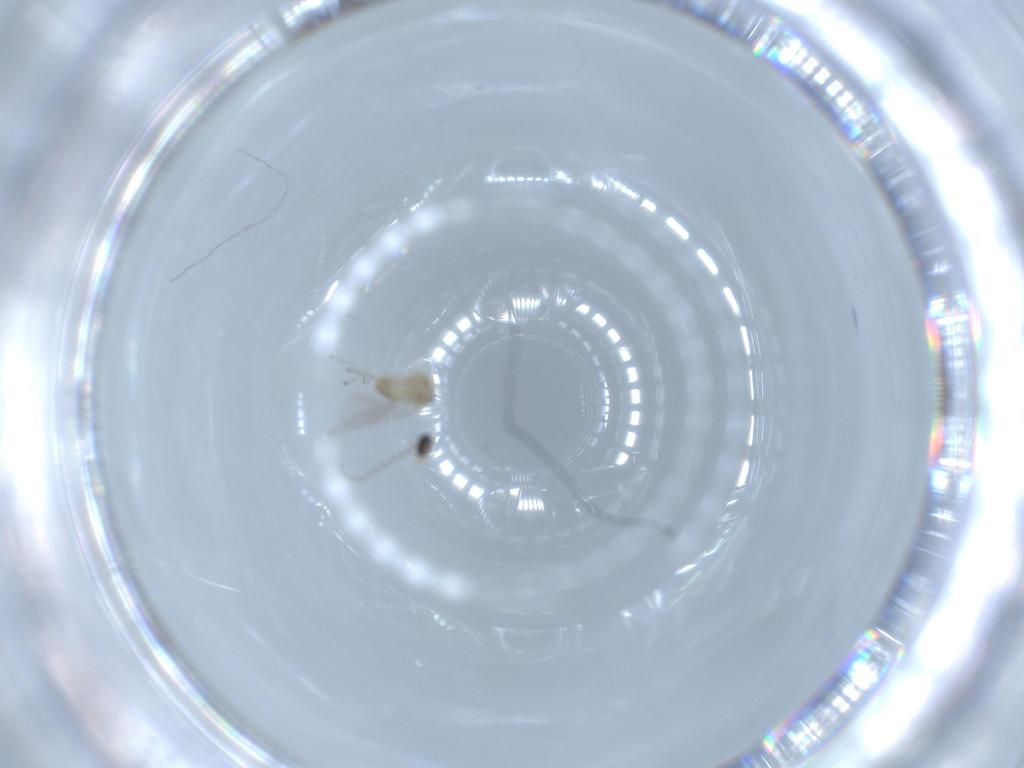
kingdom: Animalia
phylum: Arthropoda
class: Insecta
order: Diptera
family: Cecidomyiidae
